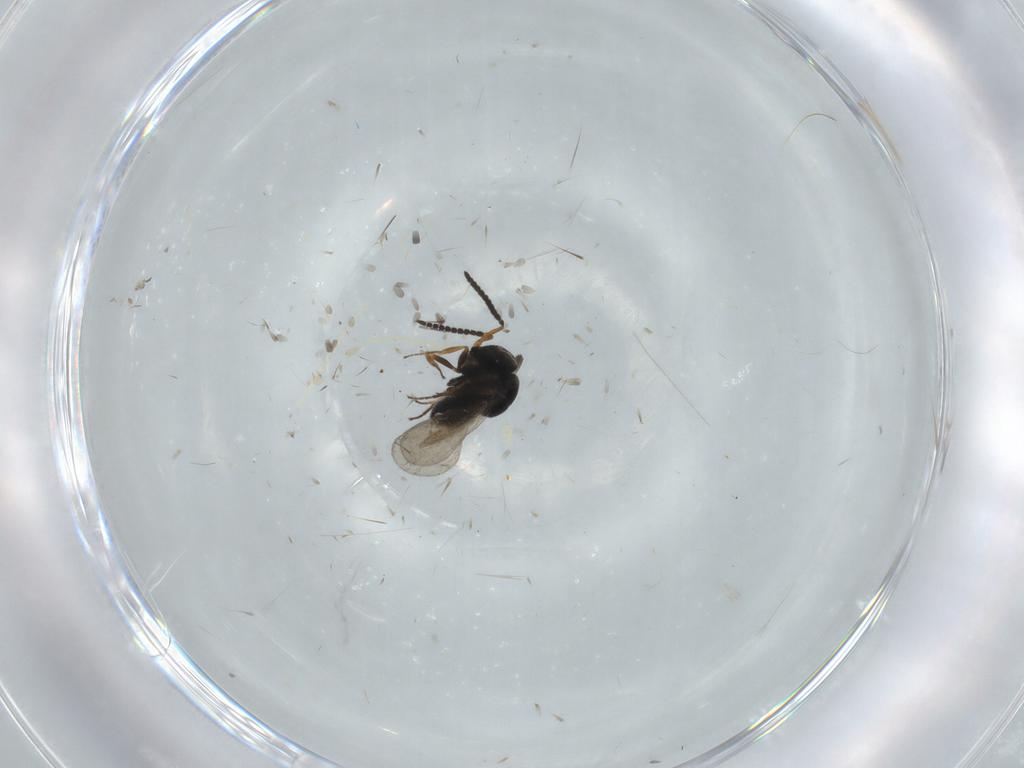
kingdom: Animalia
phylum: Arthropoda
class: Insecta
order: Hymenoptera
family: Scelionidae
